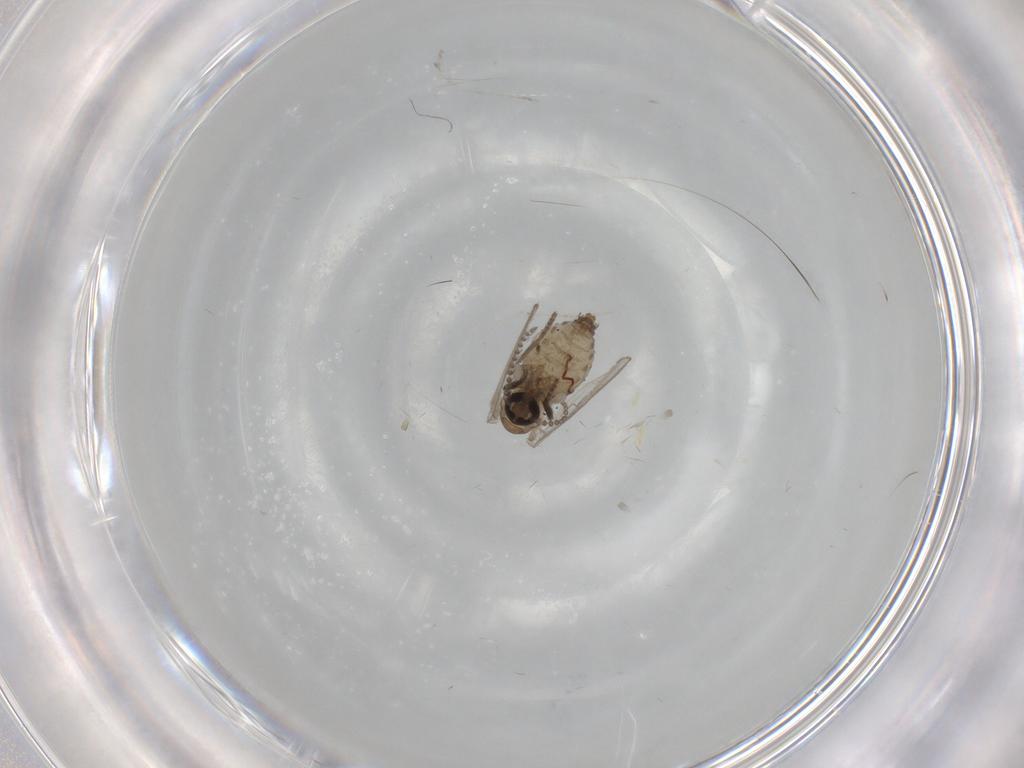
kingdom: Animalia
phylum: Arthropoda
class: Insecta
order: Diptera
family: Psychodidae
